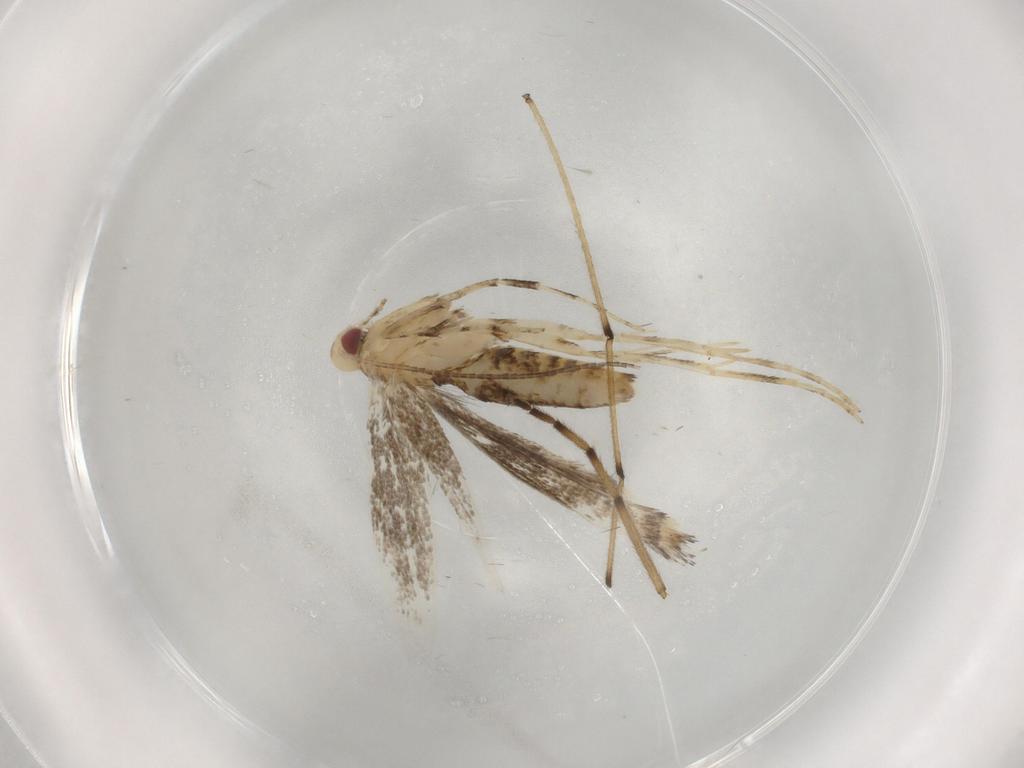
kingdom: Animalia
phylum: Arthropoda
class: Insecta
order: Lepidoptera
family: Gracillariidae
